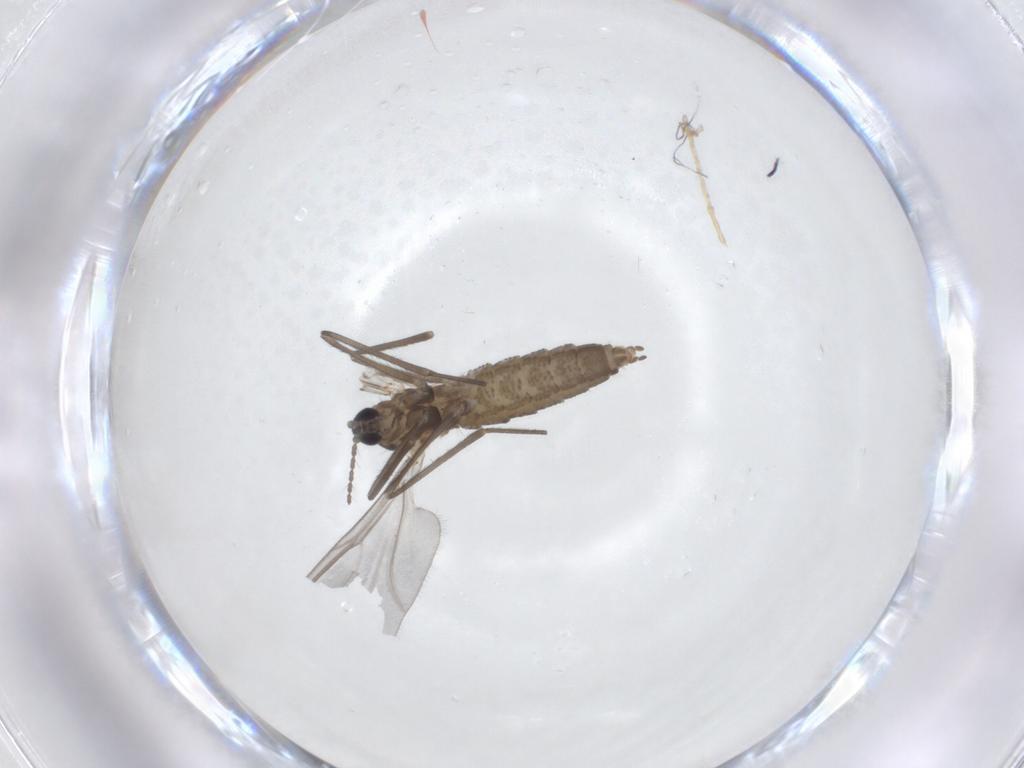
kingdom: Animalia
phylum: Arthropoda
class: Insecta
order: Diptera
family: Cecidomyiidae
